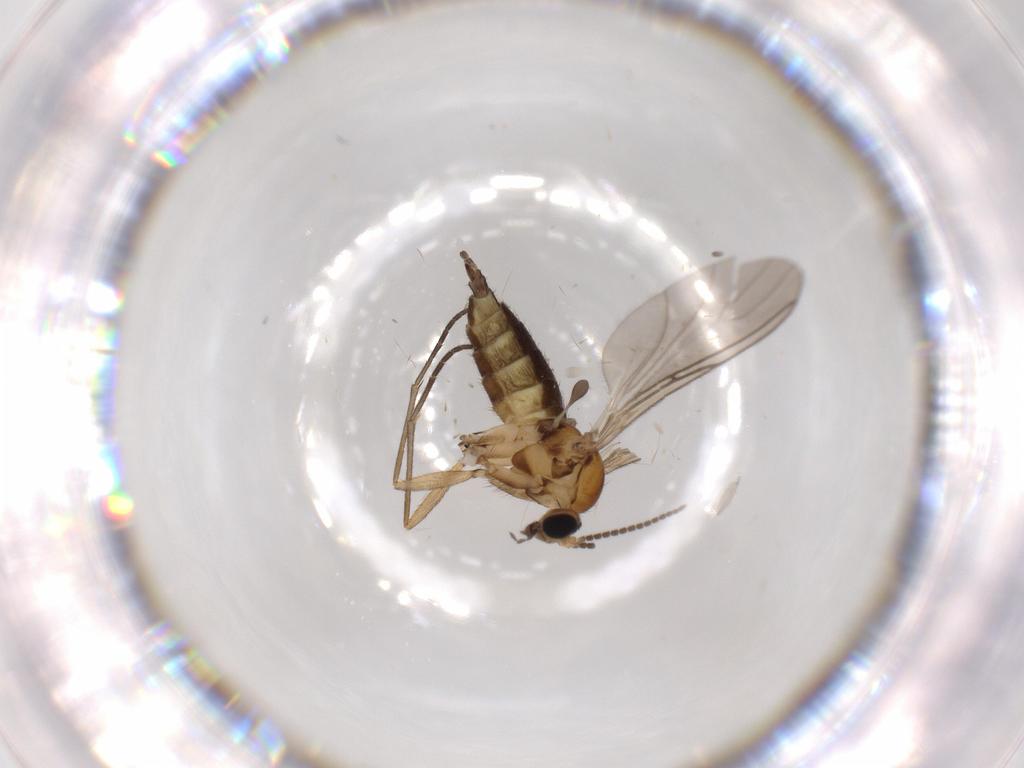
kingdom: Animalia
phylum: Arthropoda
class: Insecta
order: Diptera
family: Sciaridae
